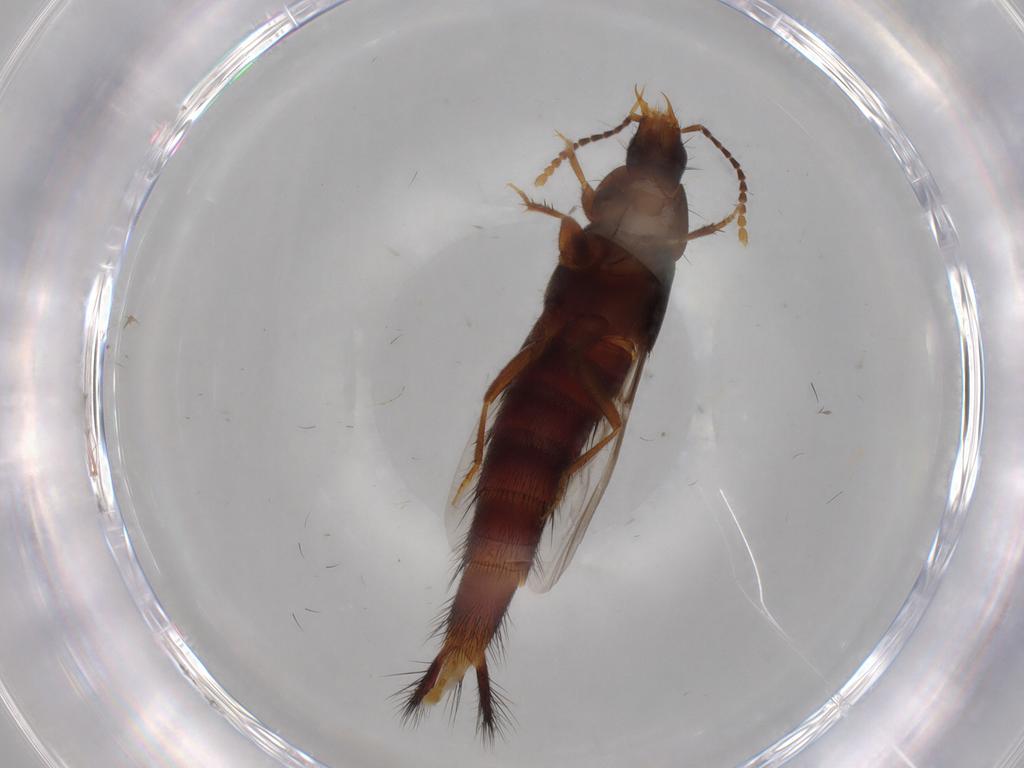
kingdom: Animalia
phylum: Arthropoda
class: Insecta
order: Coleoptera
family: Staphylinidae
